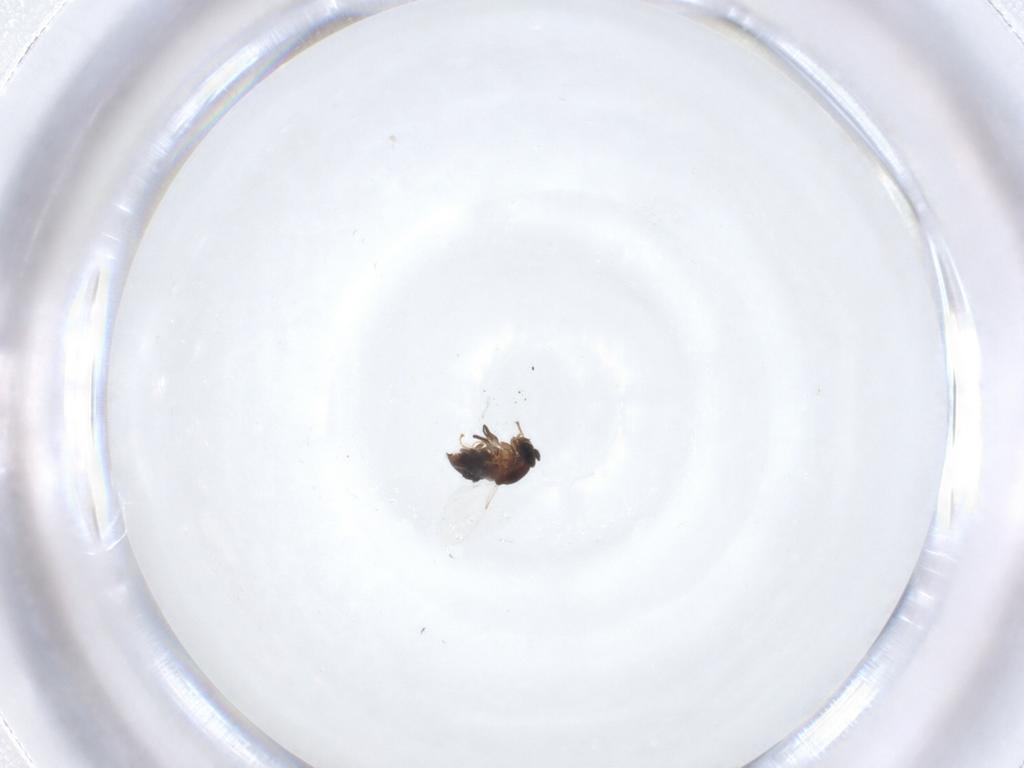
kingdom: Animalia
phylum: Arthropoda
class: Insecta
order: Diptera
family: Scatopsidae
